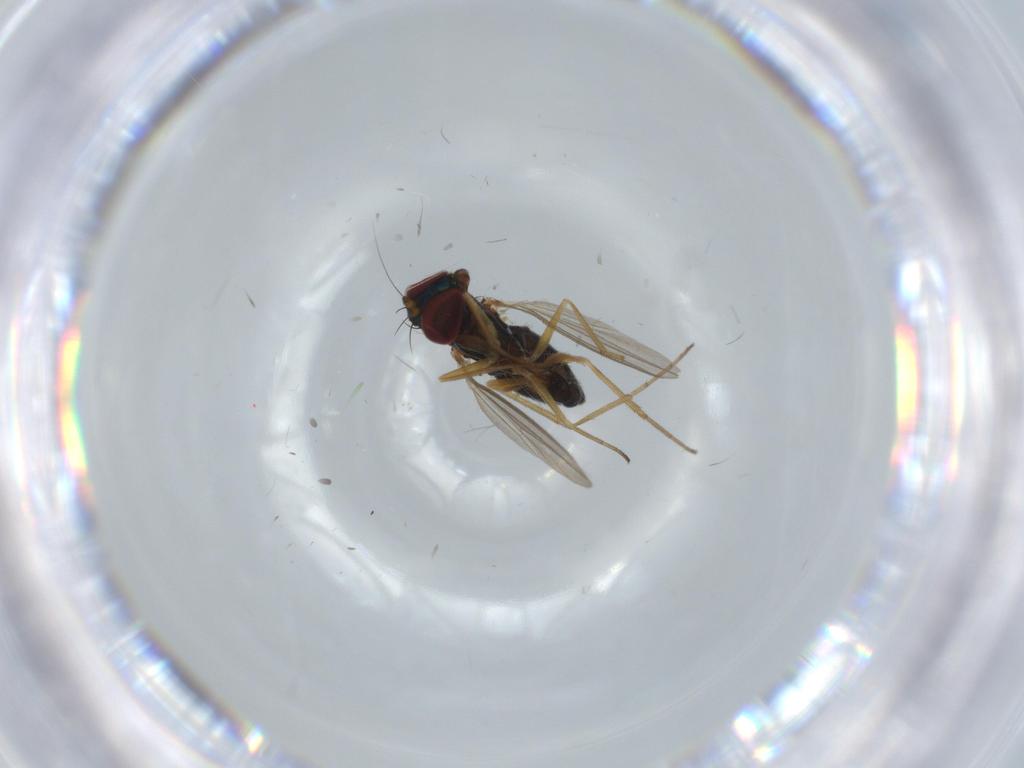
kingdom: Animalia
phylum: Arthropoda
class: Insecta
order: Diptera
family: Dolichopodidae
